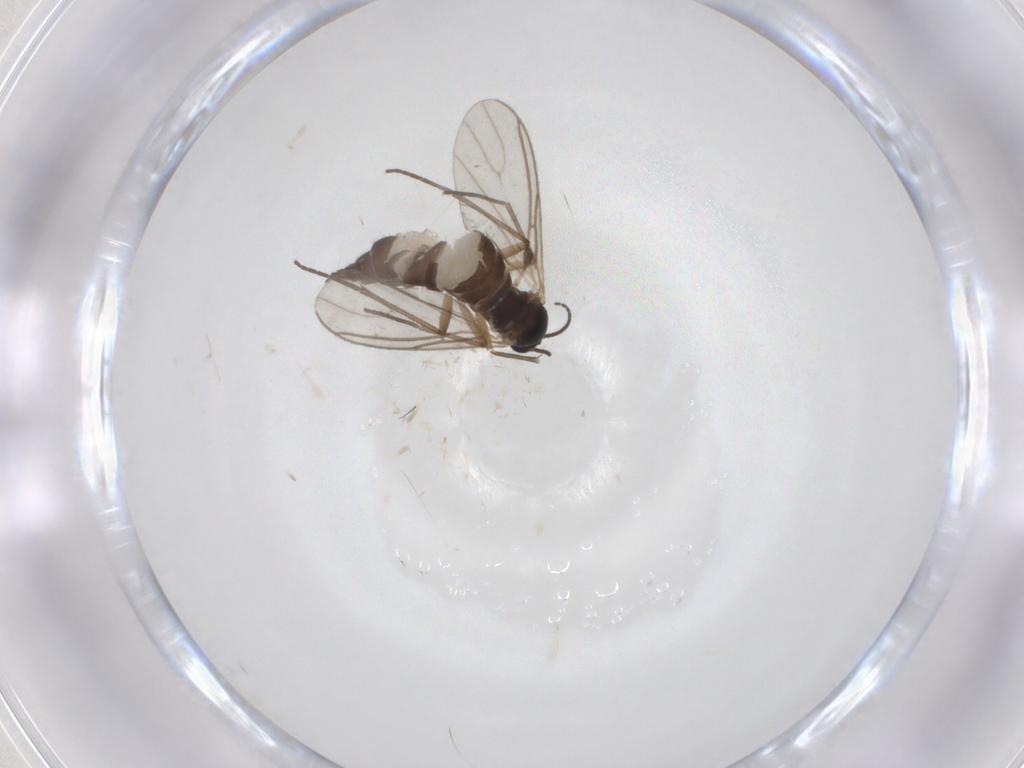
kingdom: Animalia
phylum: Arthropoda
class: Insecta
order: Diptera
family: Sciaridae
